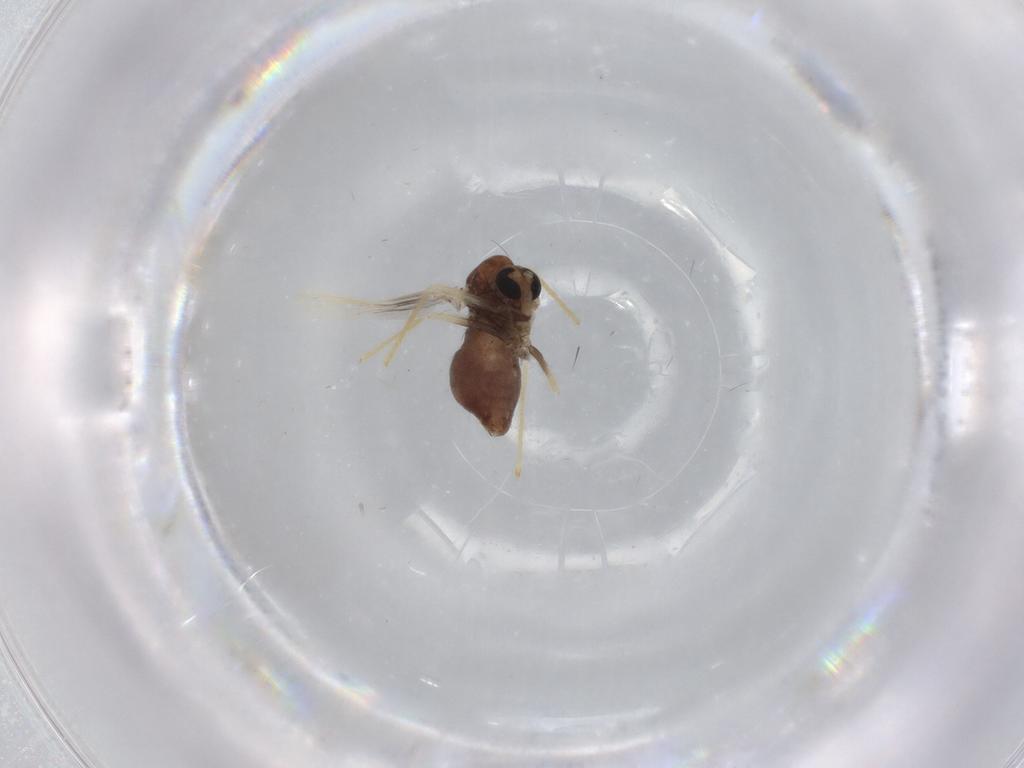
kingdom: Animalia
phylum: Arthropoda
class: Insecta
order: Diptera
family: Chironomidae
